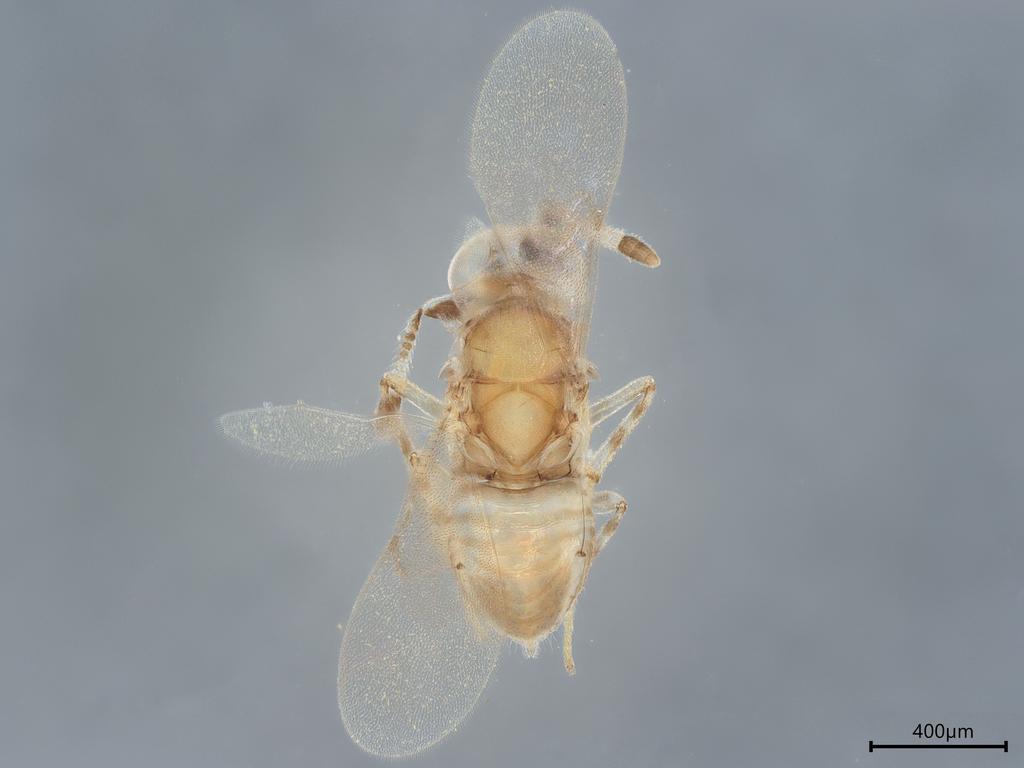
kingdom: Animalia
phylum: Arthropoda
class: Insecta
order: Hymenoptera
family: Encyrtidae
